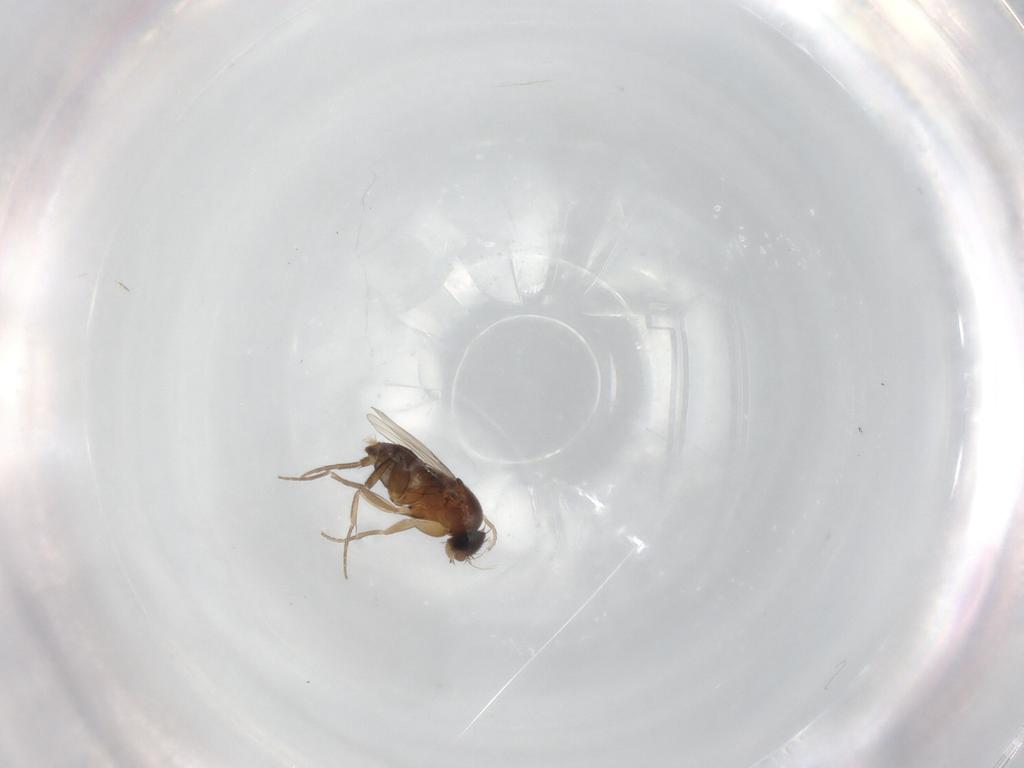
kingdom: Animalia
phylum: Arthropoda
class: Insecta
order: Diptera
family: Phoridae
